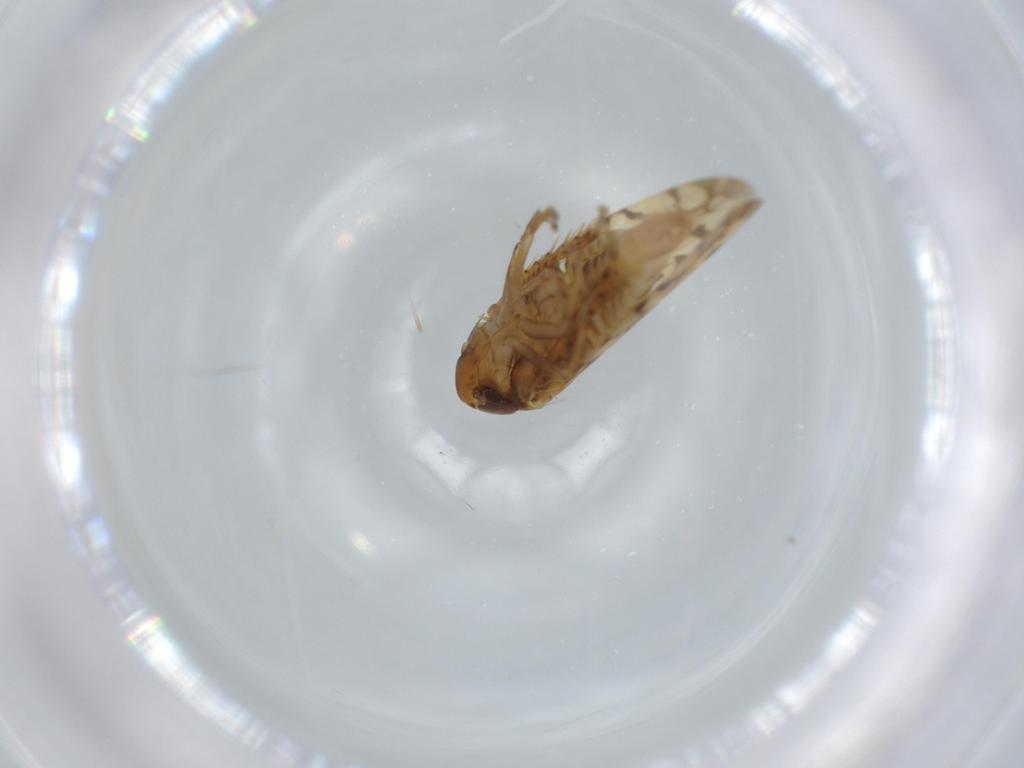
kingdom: Animalia
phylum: Arthropoda
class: Insecta
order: Hemiptera
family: Cicadellidae
